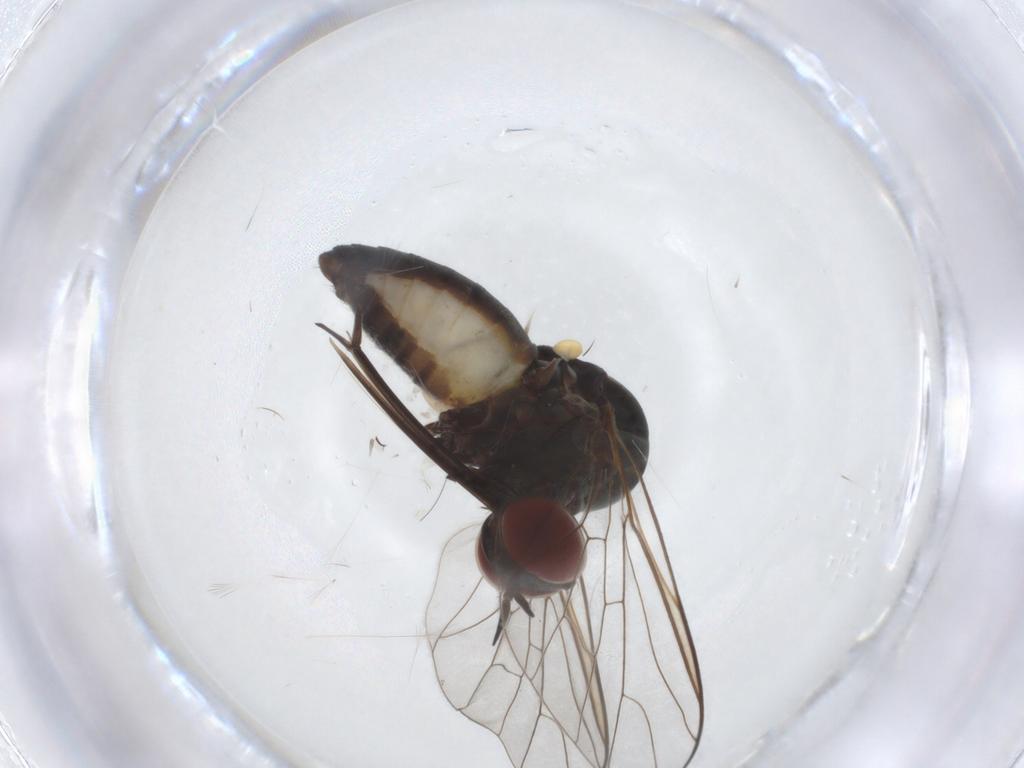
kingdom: Animalia
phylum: Arthropoda
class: Insecta
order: Diptera
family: Bombyliidae
